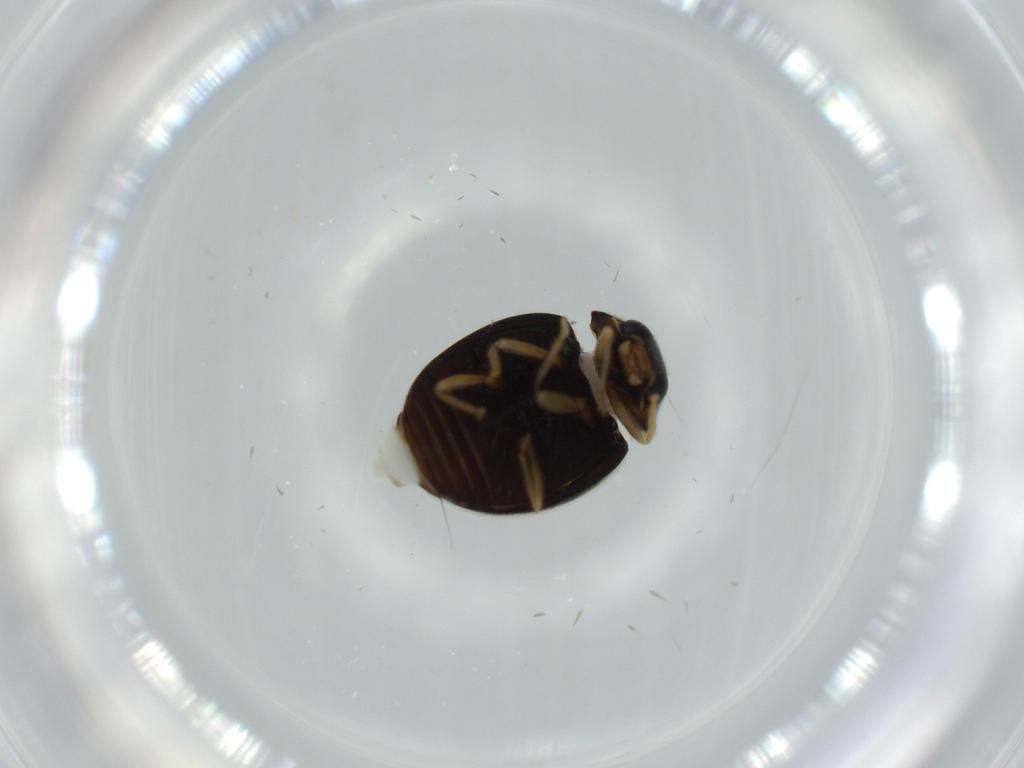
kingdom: Animalia
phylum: Arthropoda
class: Insecta
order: Coleoptera
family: Coccinellidae
